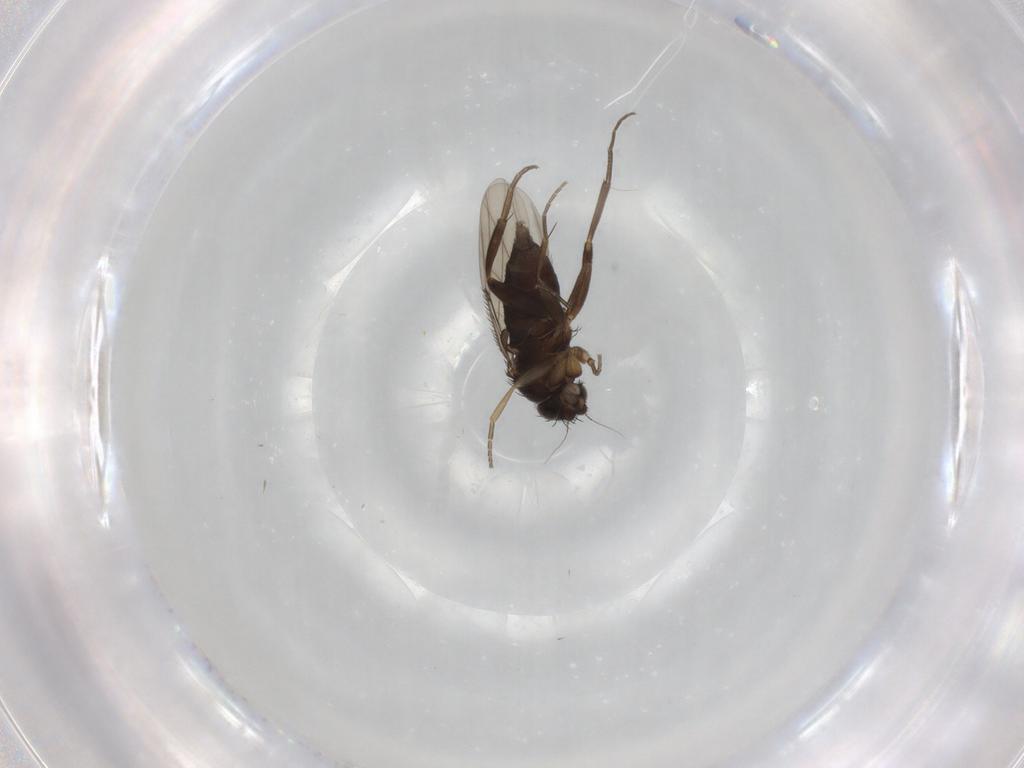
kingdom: Animalia
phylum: Arthropoda
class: Insecta
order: Diptera
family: Phoridae
